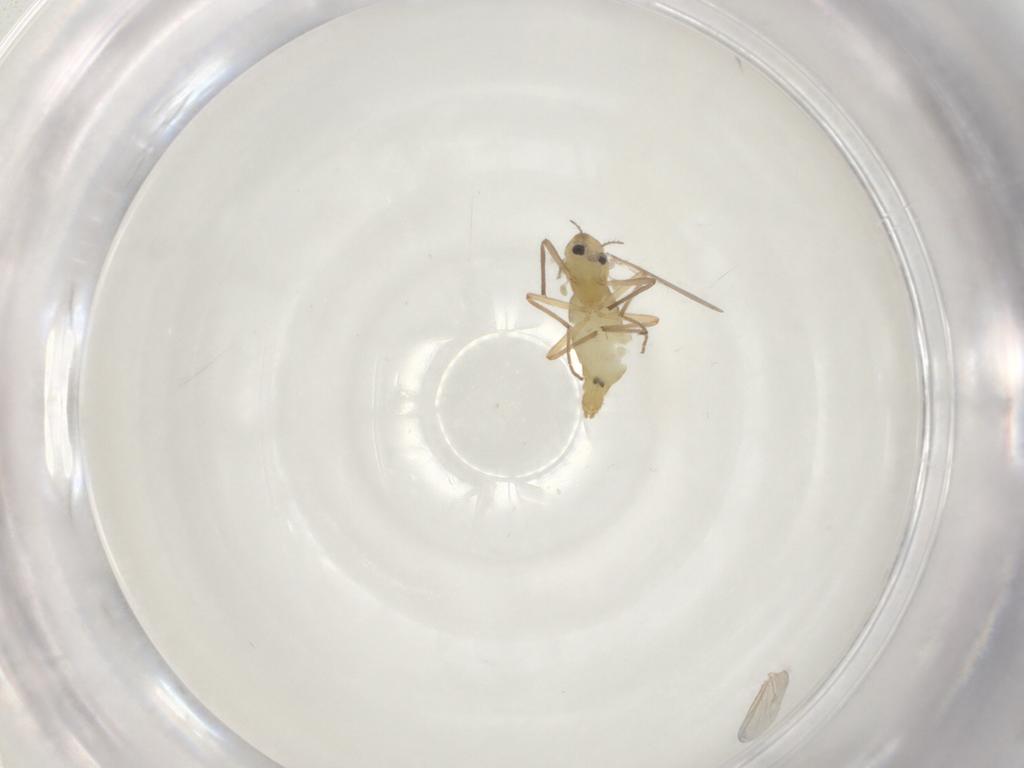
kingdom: Animalia
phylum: Arthropoda
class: Insecta
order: Diptera
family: Chironomidae
